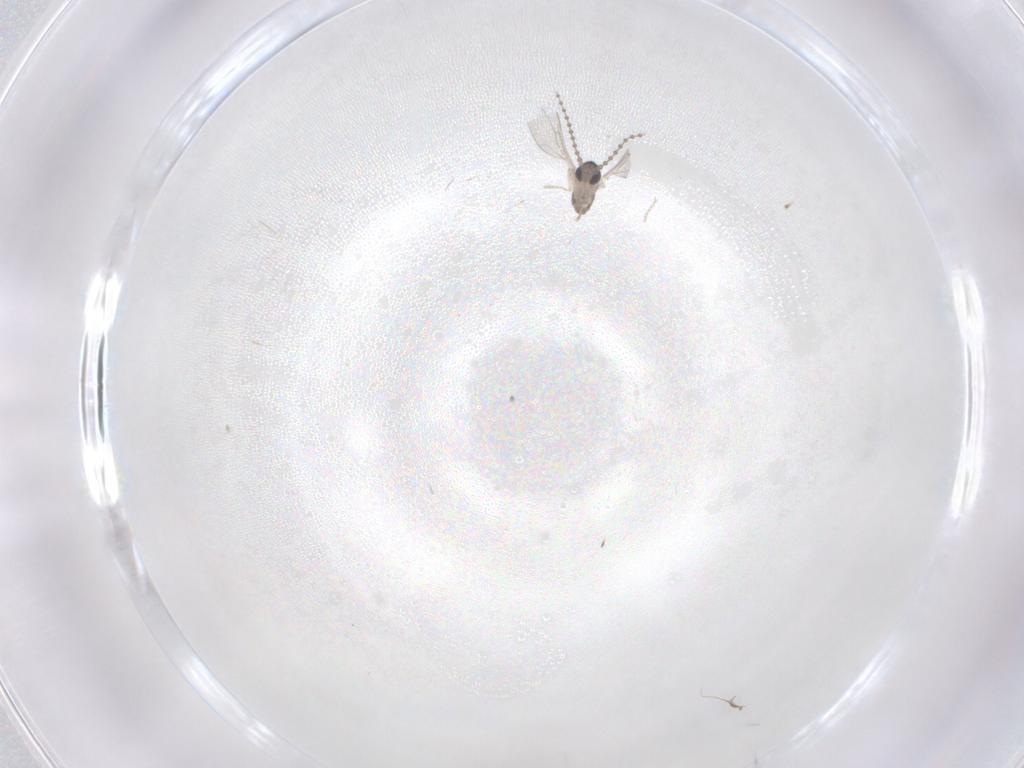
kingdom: Animalia
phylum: Arthropoda
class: Insecta
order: Diptera
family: Cecidomyiidae
